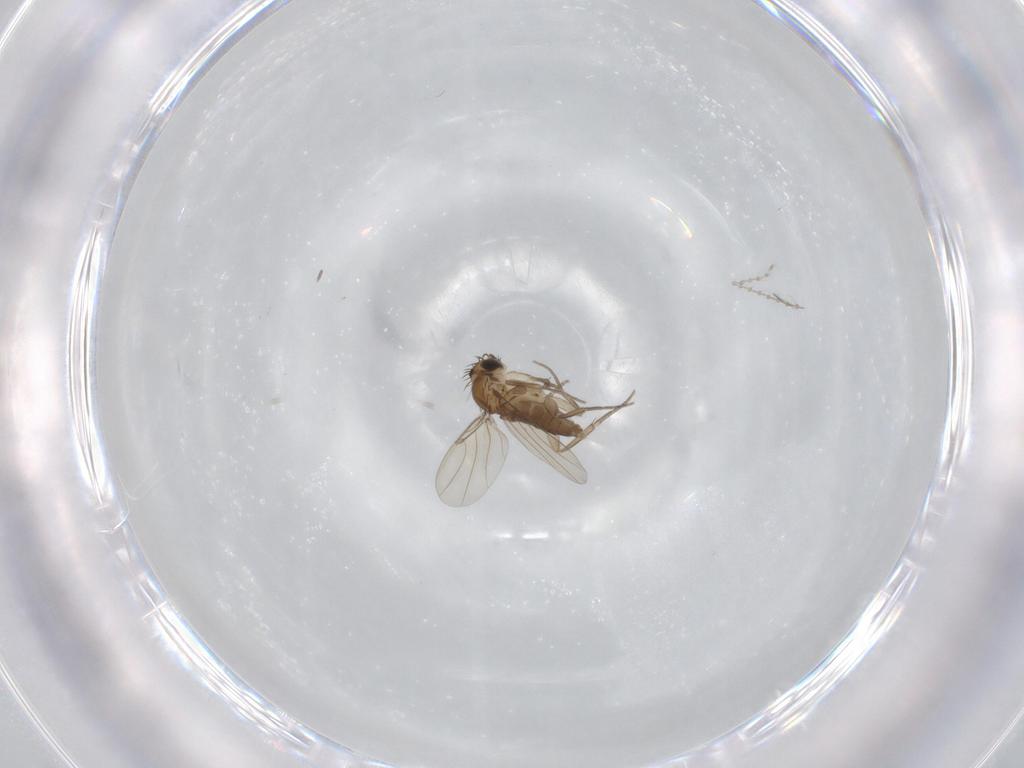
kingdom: Animalia
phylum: Arthropoda
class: Insecta
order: Diptera
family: Phoridae
